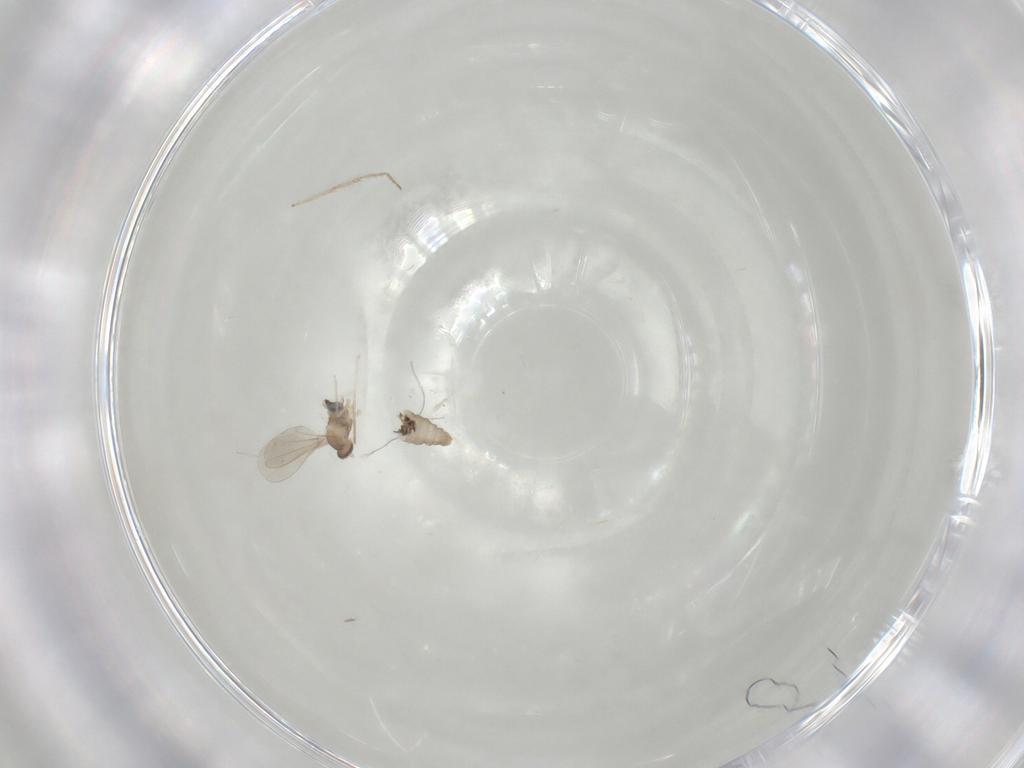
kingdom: Animalia
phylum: Arthropoda
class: Insecta
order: Diptera
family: Cecidomyiidae
